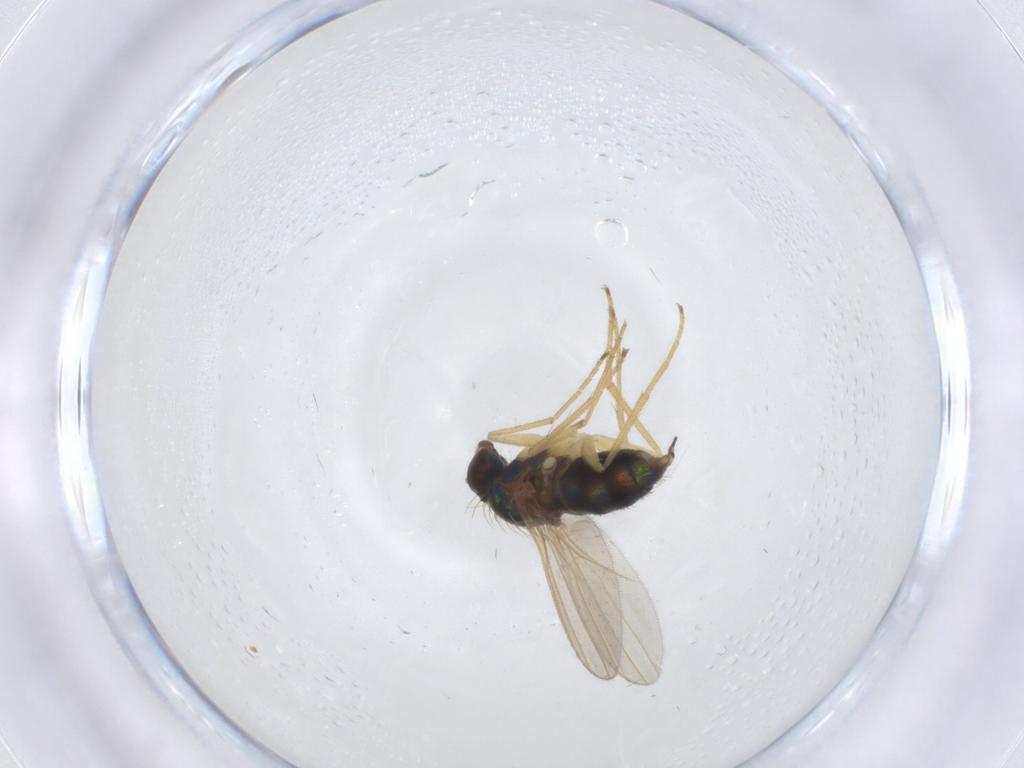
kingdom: Animalia
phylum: Arthropoda
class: Insecta
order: Diptera
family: Dolichopodidae
